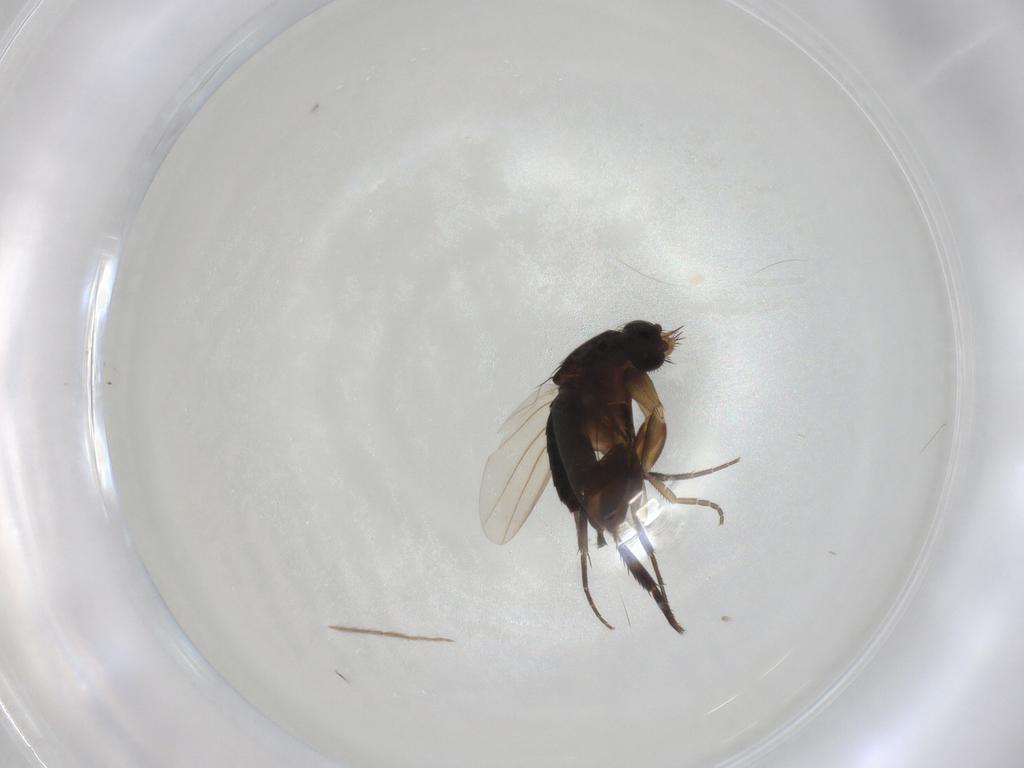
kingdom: Animalia
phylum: Arthropoda
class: Insecta
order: Diptera
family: Phoridae
